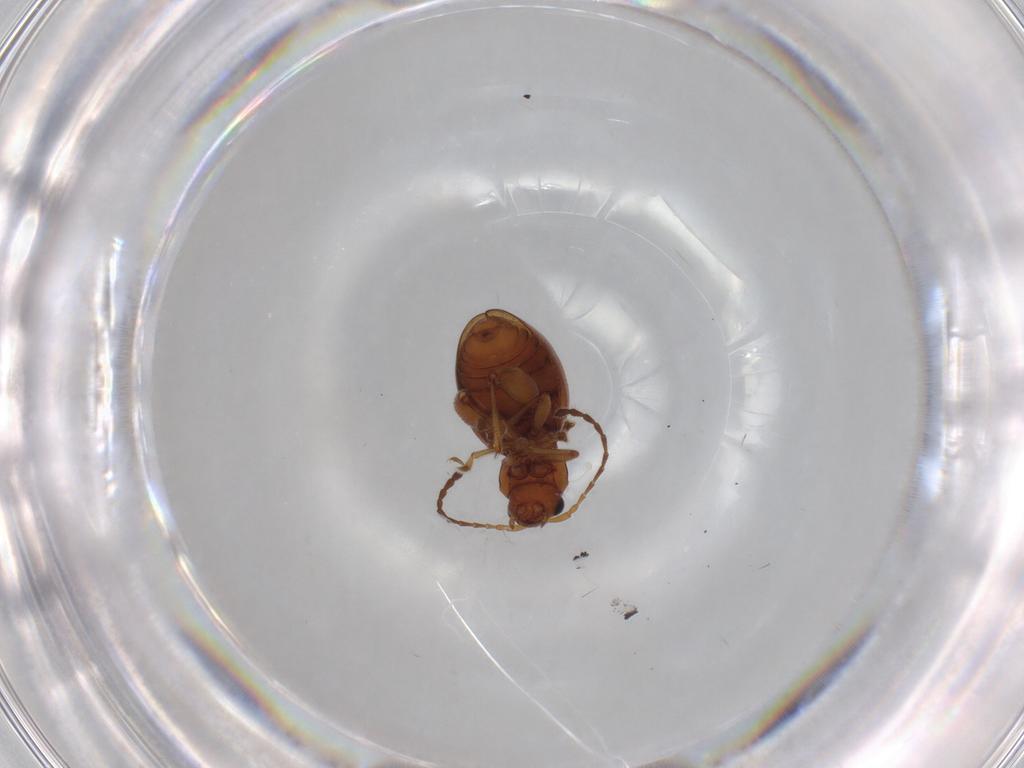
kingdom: Animalia
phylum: Arthropoda
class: Insecta
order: Coleoptera
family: Chrysomelidae
